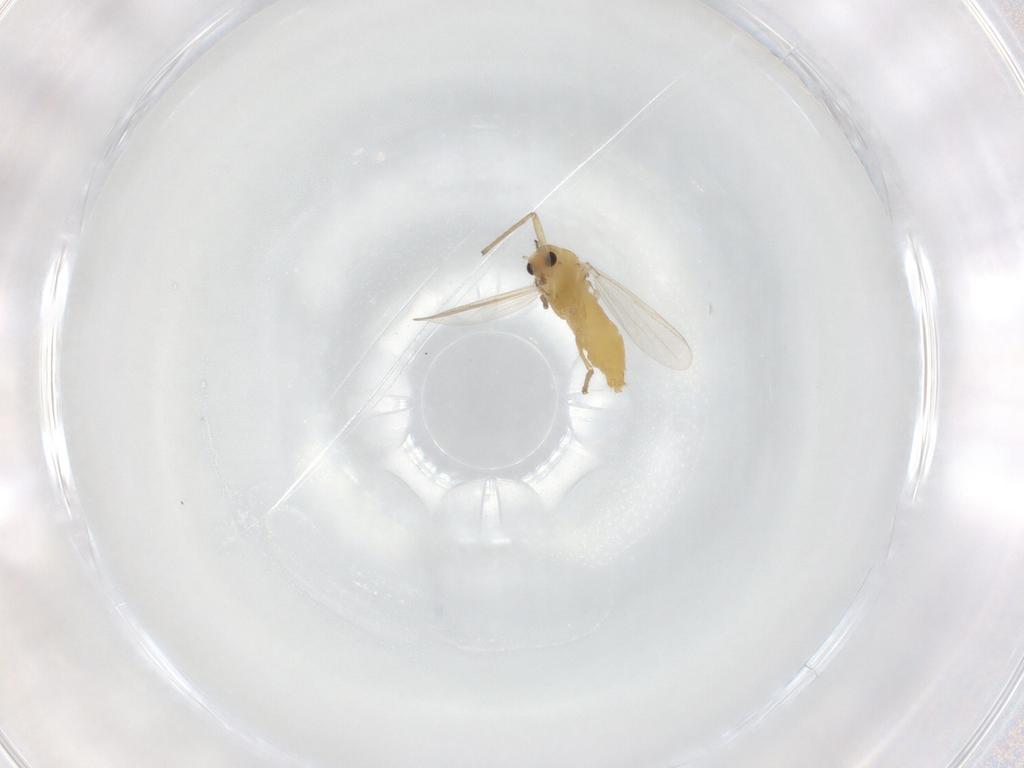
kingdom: Animalia
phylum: Arthropoda
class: Insecta
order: Diptera
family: Chironomidae
